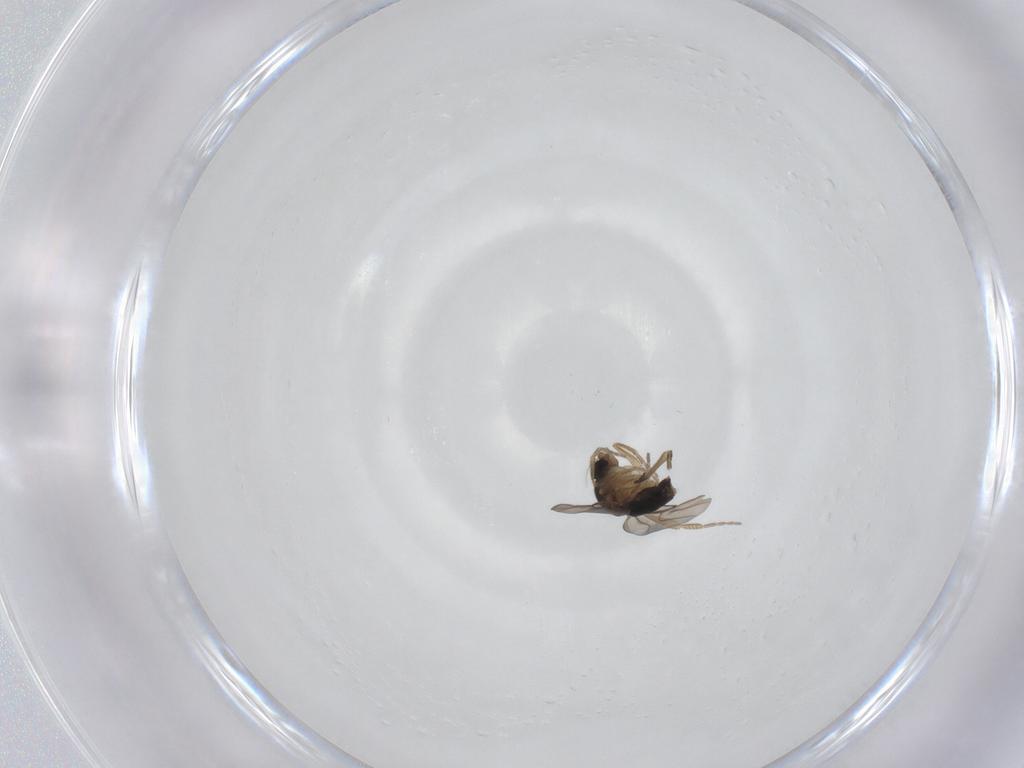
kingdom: Animalia
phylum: Arthropoda
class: Insecta
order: Diptera
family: Phoridae
